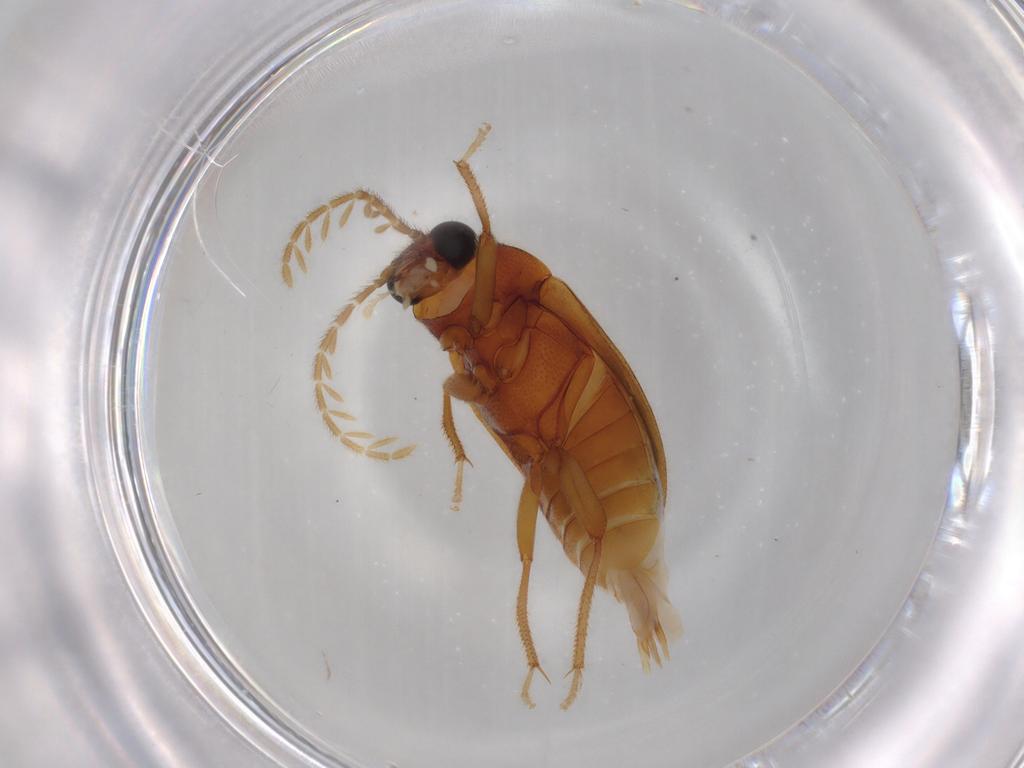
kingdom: Animalia
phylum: Arthropoda
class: Insecta
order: Coleoptera
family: Ptilodactylidae
